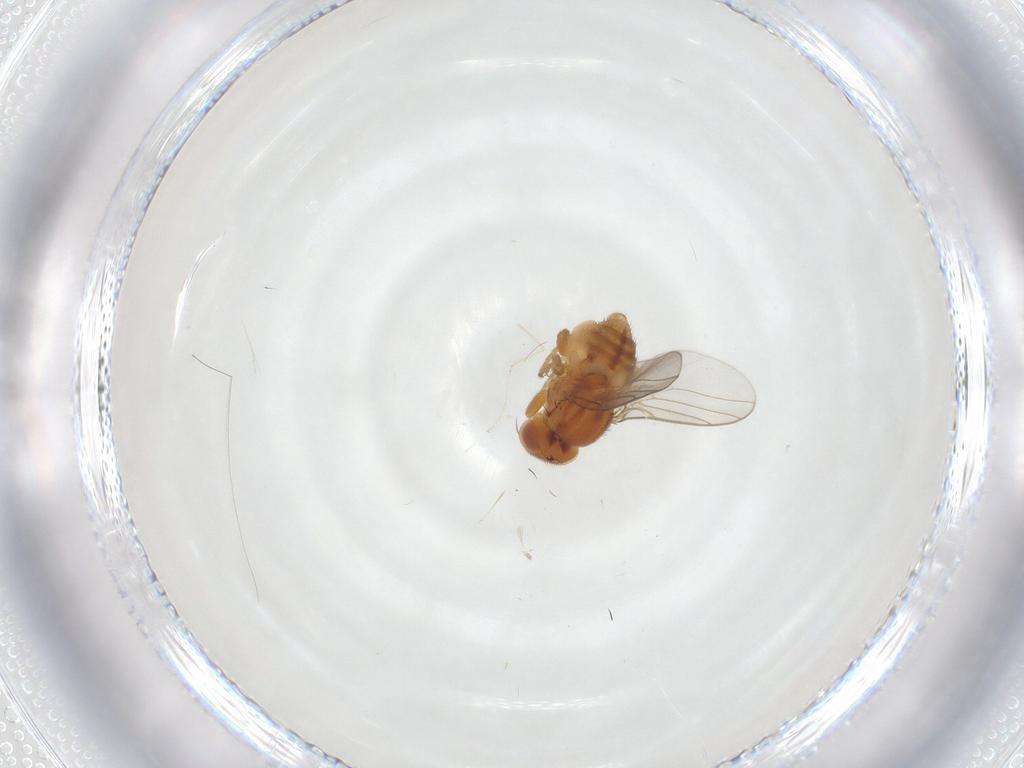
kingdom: Animalia
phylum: Arthropoda
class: Insecta
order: Diptera
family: Chloropidae
